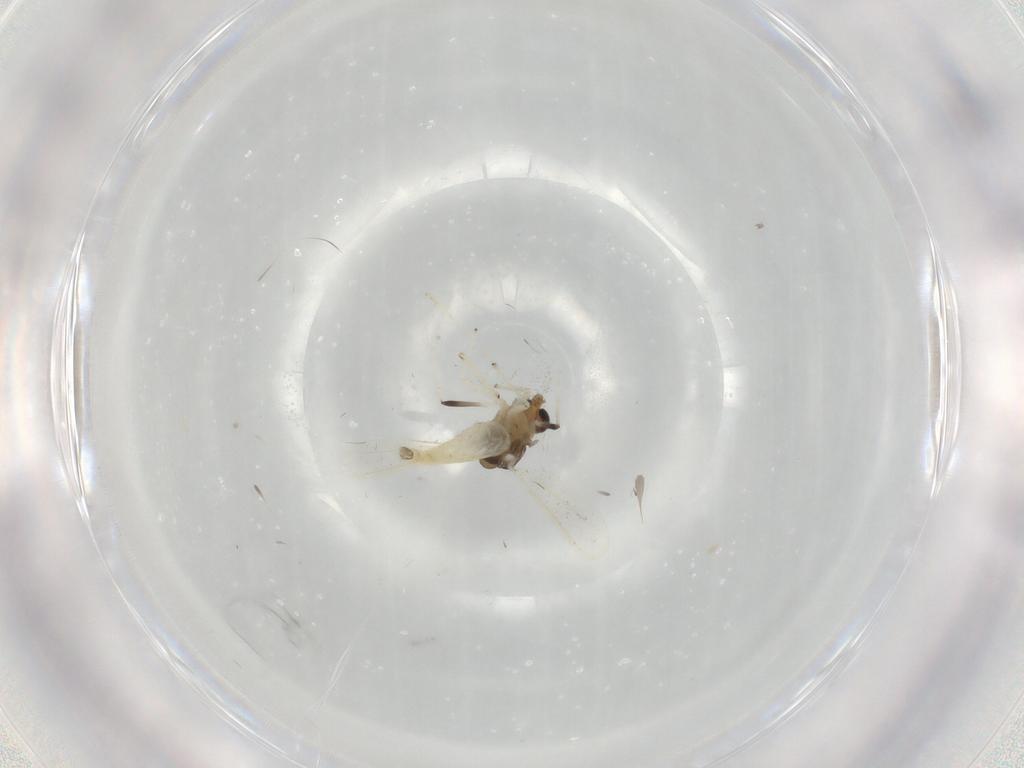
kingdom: Animalia
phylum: Arthropoda
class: Insecta
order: Diptera
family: Chironomidae
